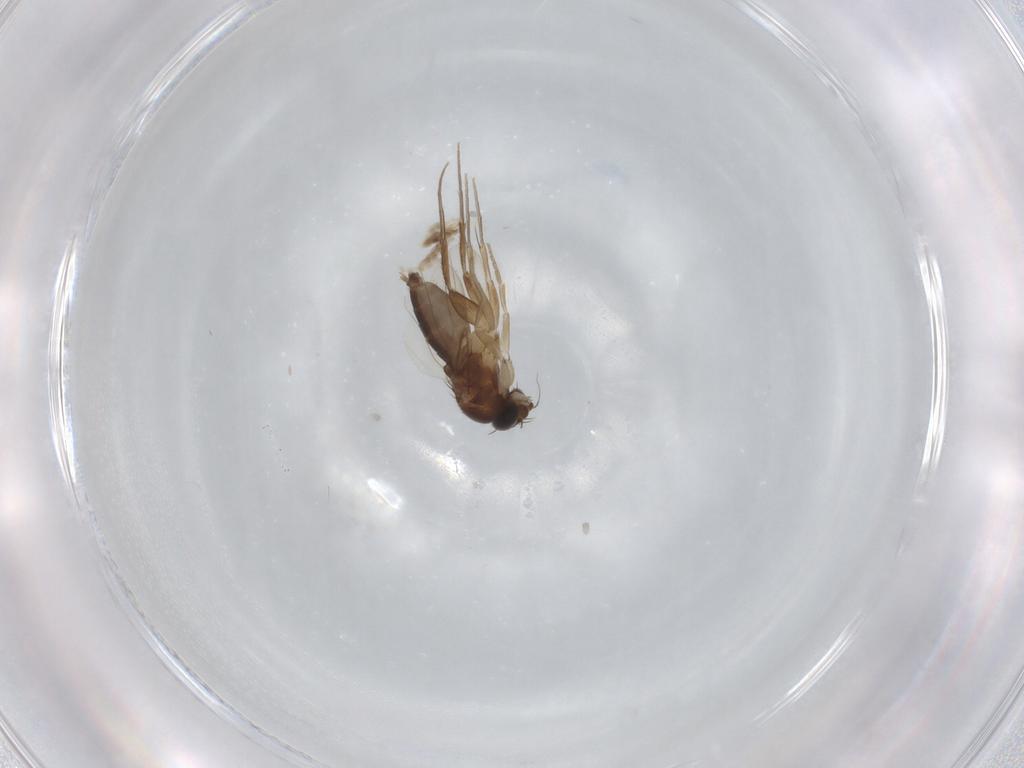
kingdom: Animalia
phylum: Arthropoda
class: Insecta
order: Diptera
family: Phoridae
